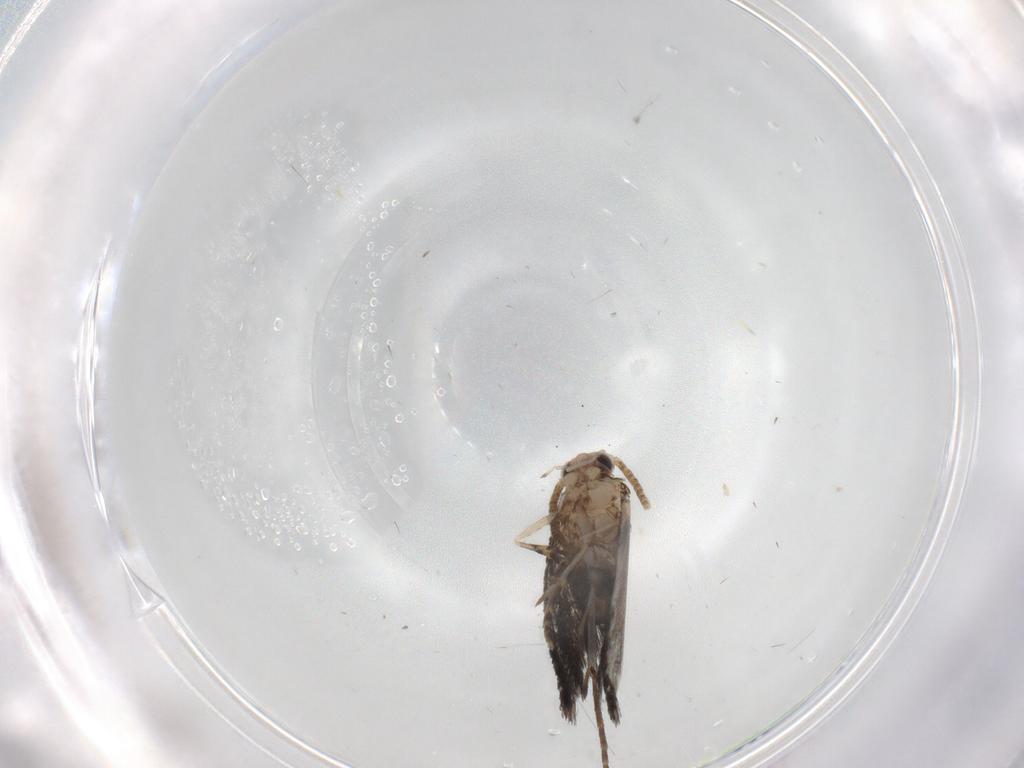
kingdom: Animalia
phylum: Arthropoda
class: Insecta
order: Lepidoptera
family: Tineidae
